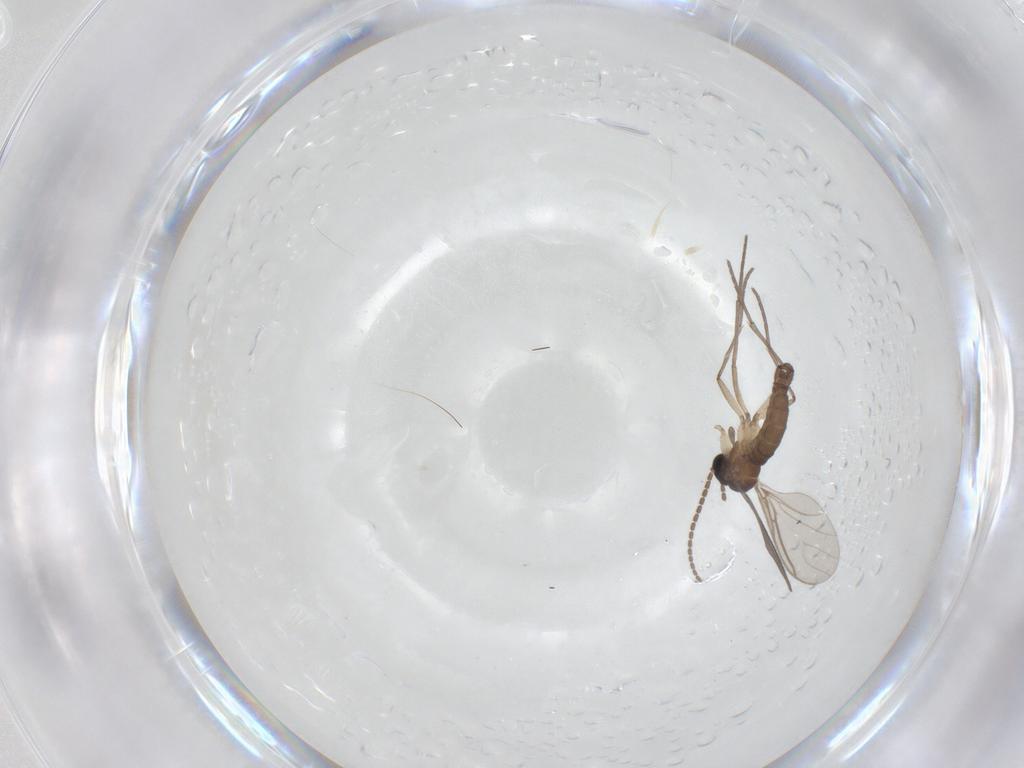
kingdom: Animalia
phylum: Arthropoda
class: Insecta
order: Diptera
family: Sciaridae
